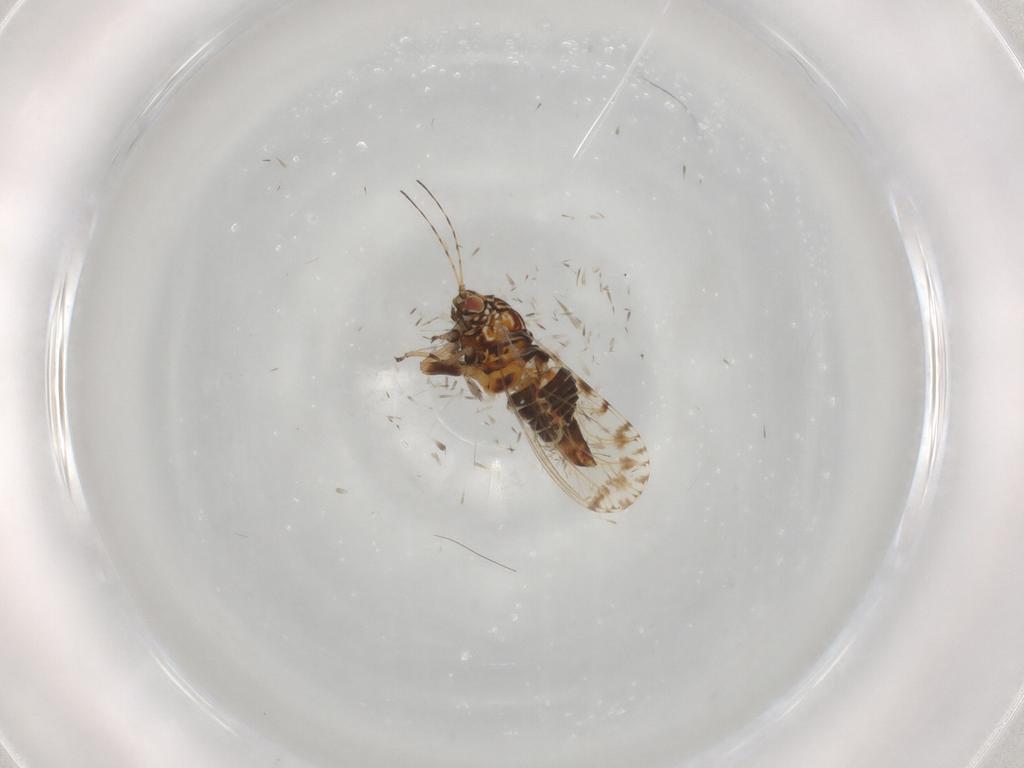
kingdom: Animalia
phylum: Arthropoda
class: Insecta
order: Hemiptera
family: Psyllidae
